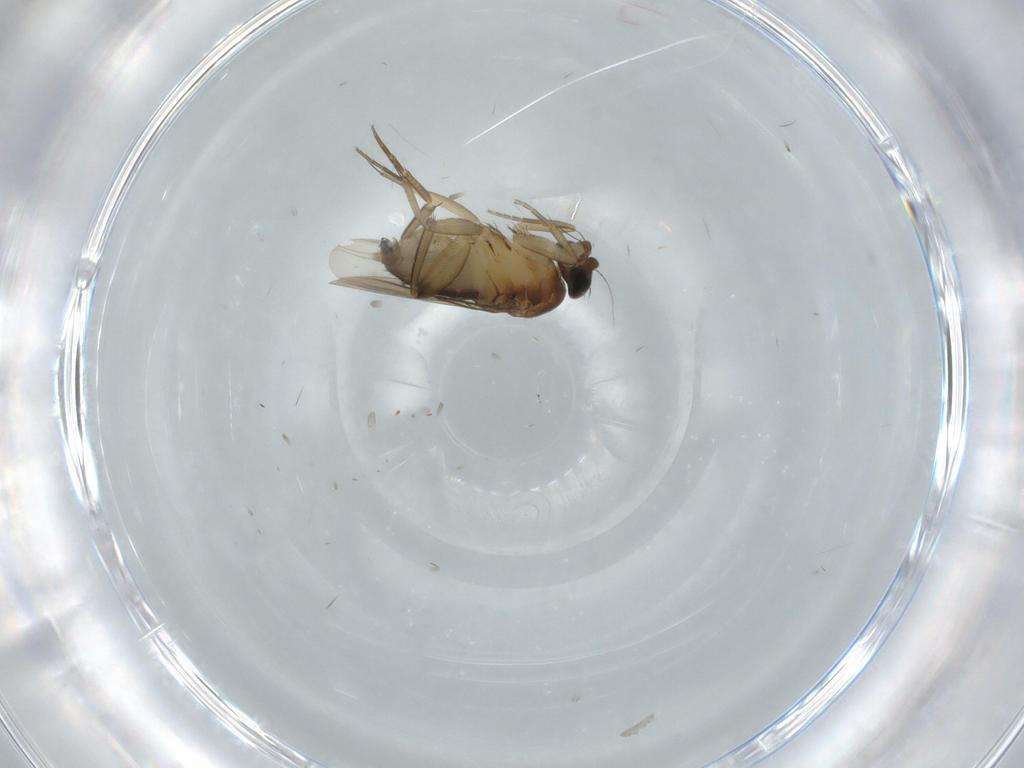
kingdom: Animalia
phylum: Arthropoda
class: Insecta
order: Diptera
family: Phoridae
